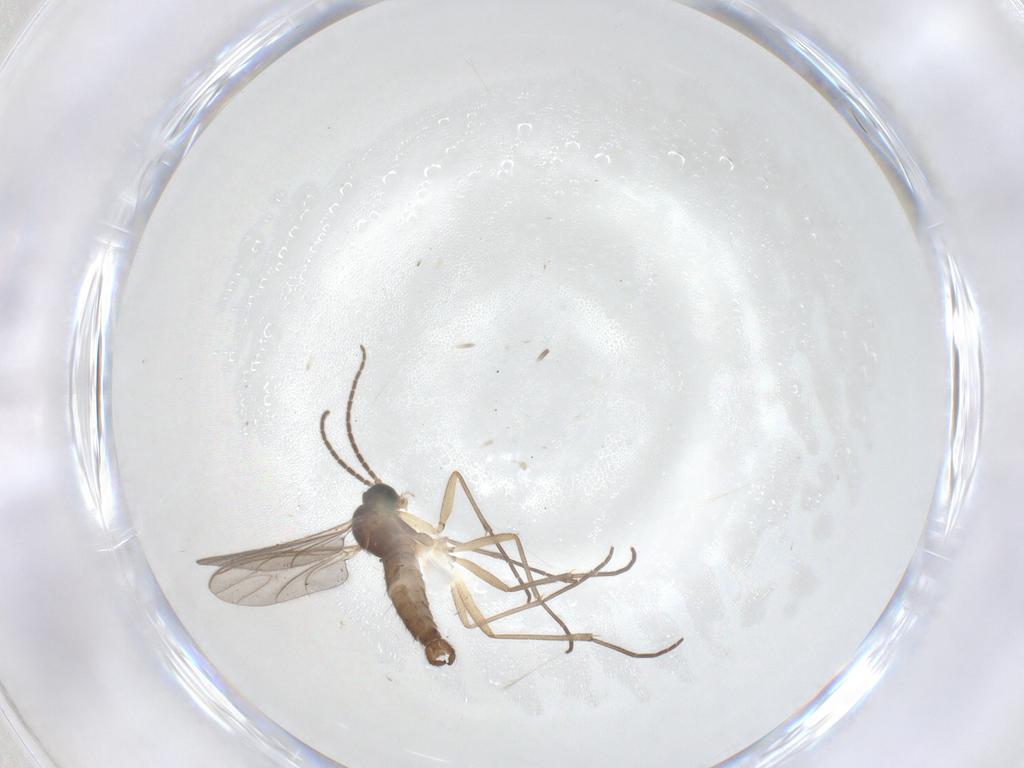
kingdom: Animalia
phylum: Arthropoda
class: Insecta
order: Diptera
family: Sciaridae
